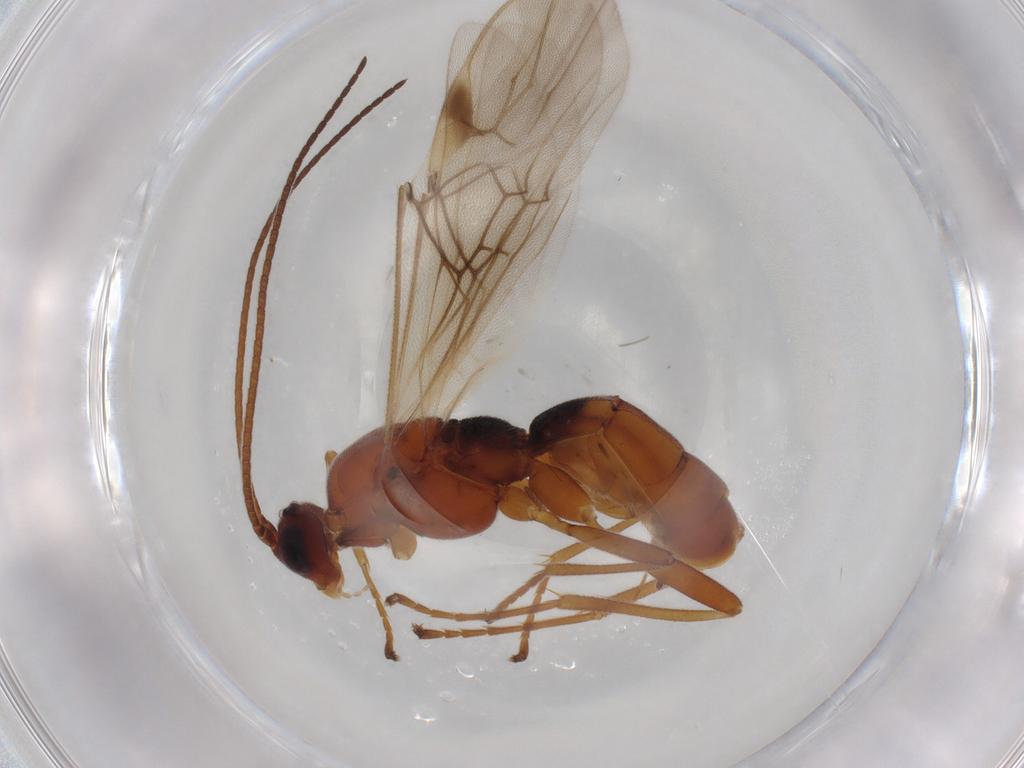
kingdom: Animalia
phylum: Arthropoda
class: Insecta
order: Hymenoptera
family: Braconidae
